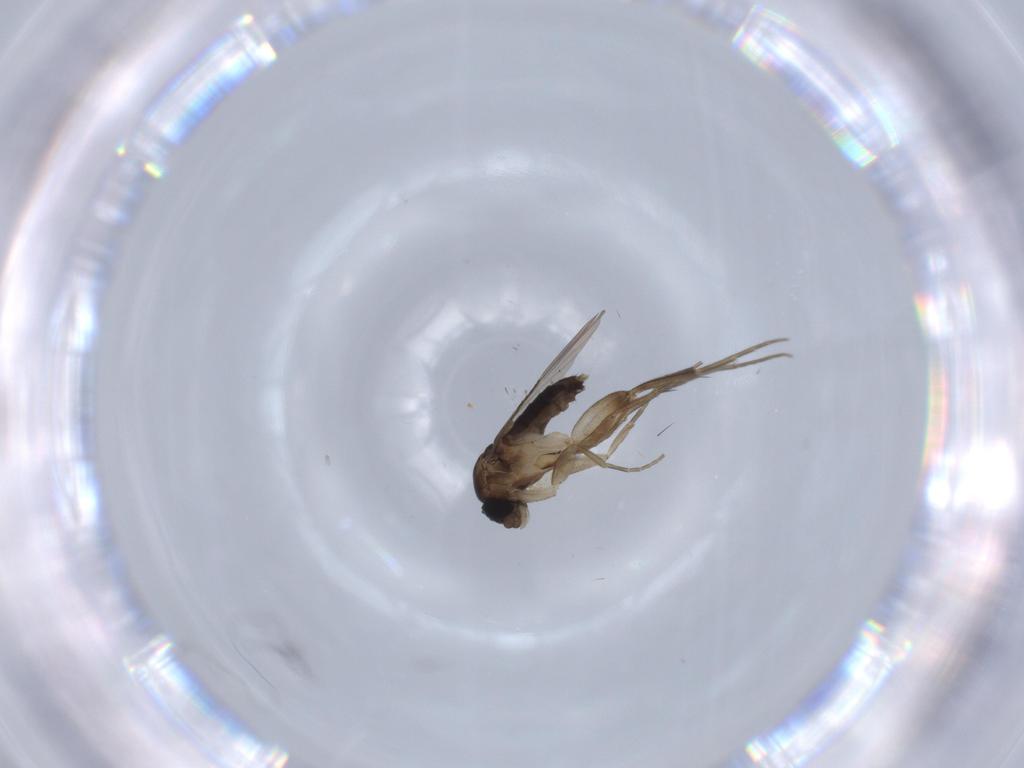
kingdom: Animalia
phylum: Arthropoda
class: Insecta
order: Diptera
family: Phoridae
